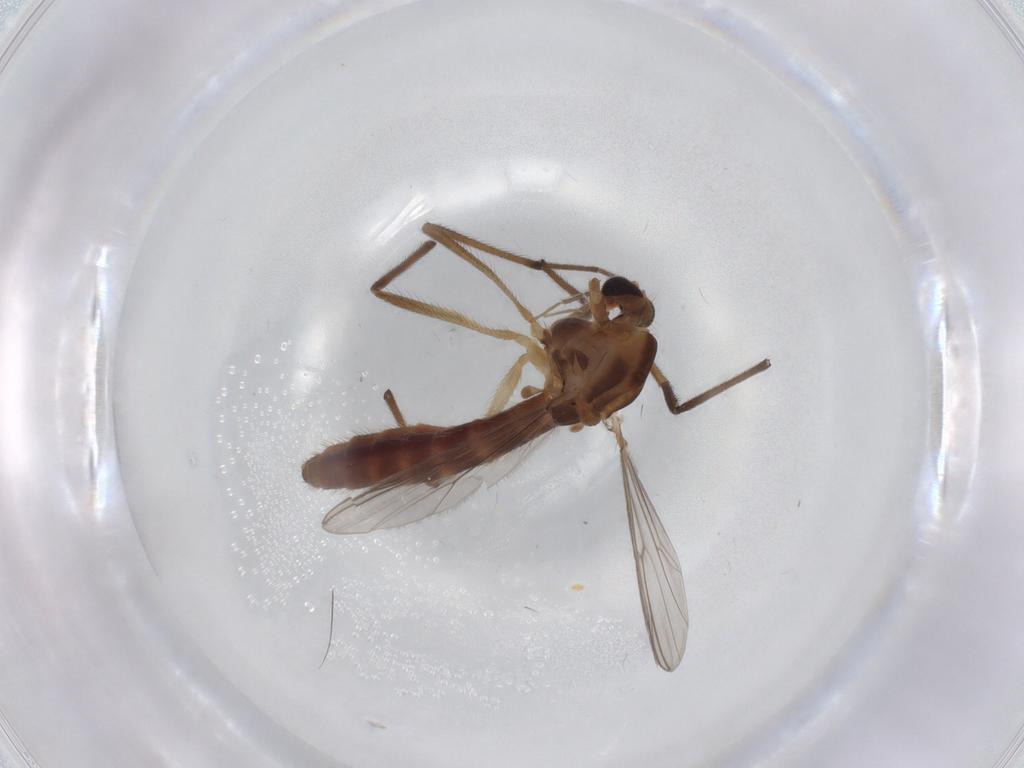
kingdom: Animalia
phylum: Arthropoda
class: Insecta
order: Diptera
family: Chironomidae
